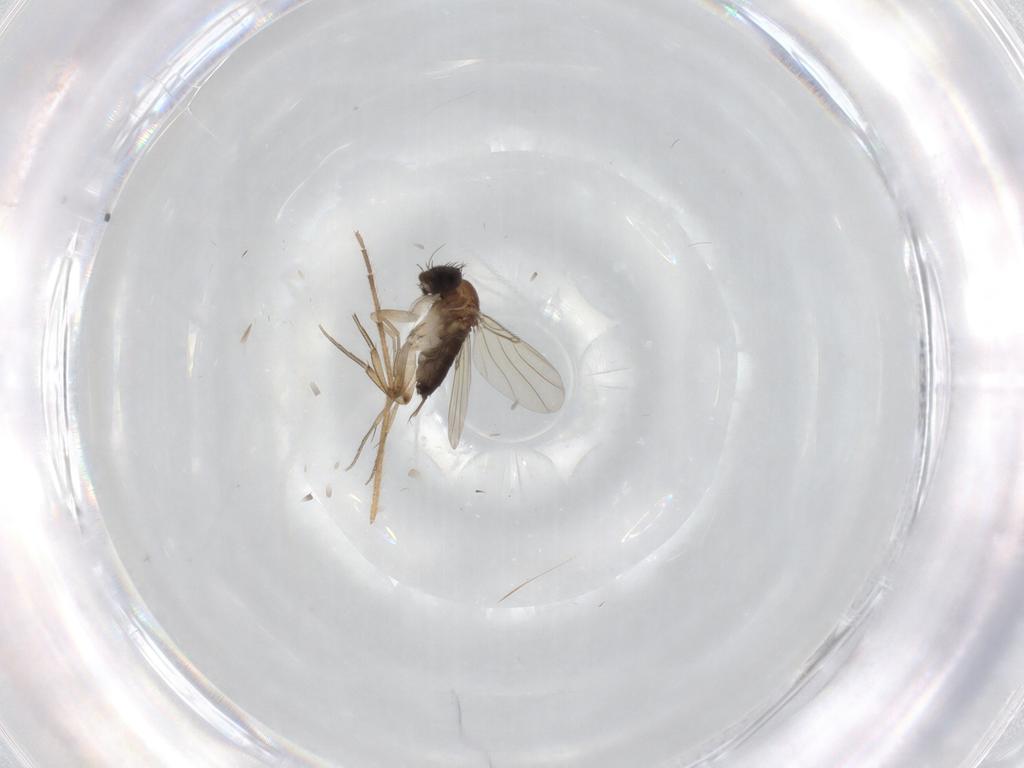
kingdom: Animalia
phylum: Arthropoda
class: Insecta
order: Diptera
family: Phoridae
